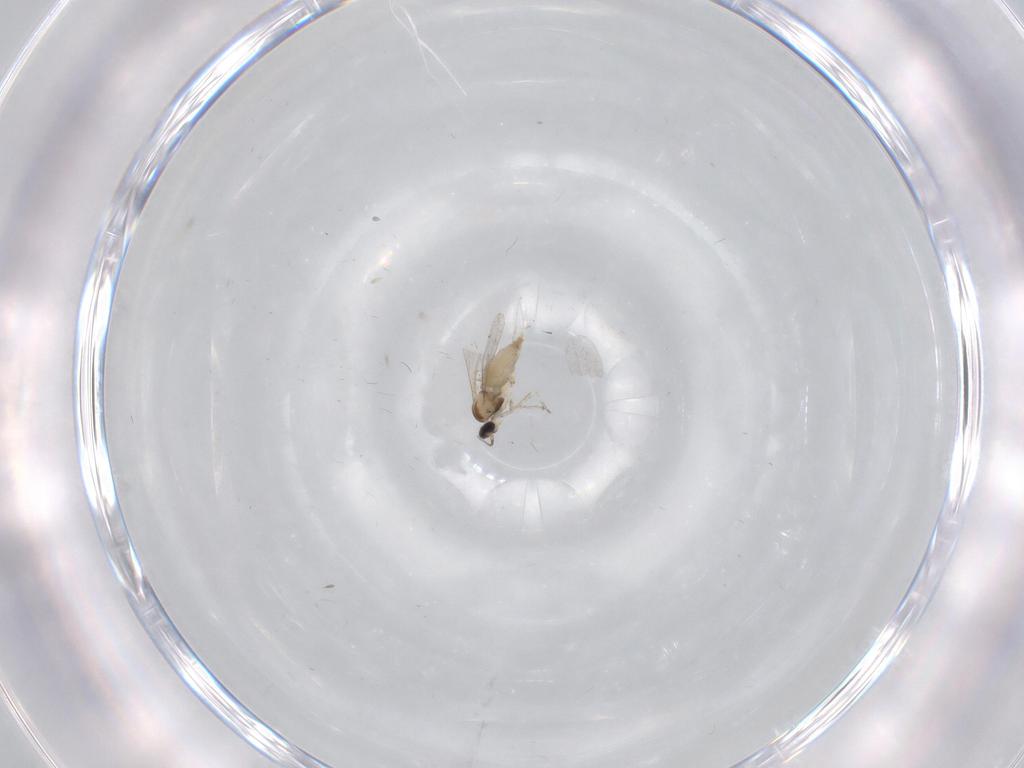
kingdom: Animalia
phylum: Arthropoda
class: Insecta
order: Diptera
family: Cecidomyiidae
